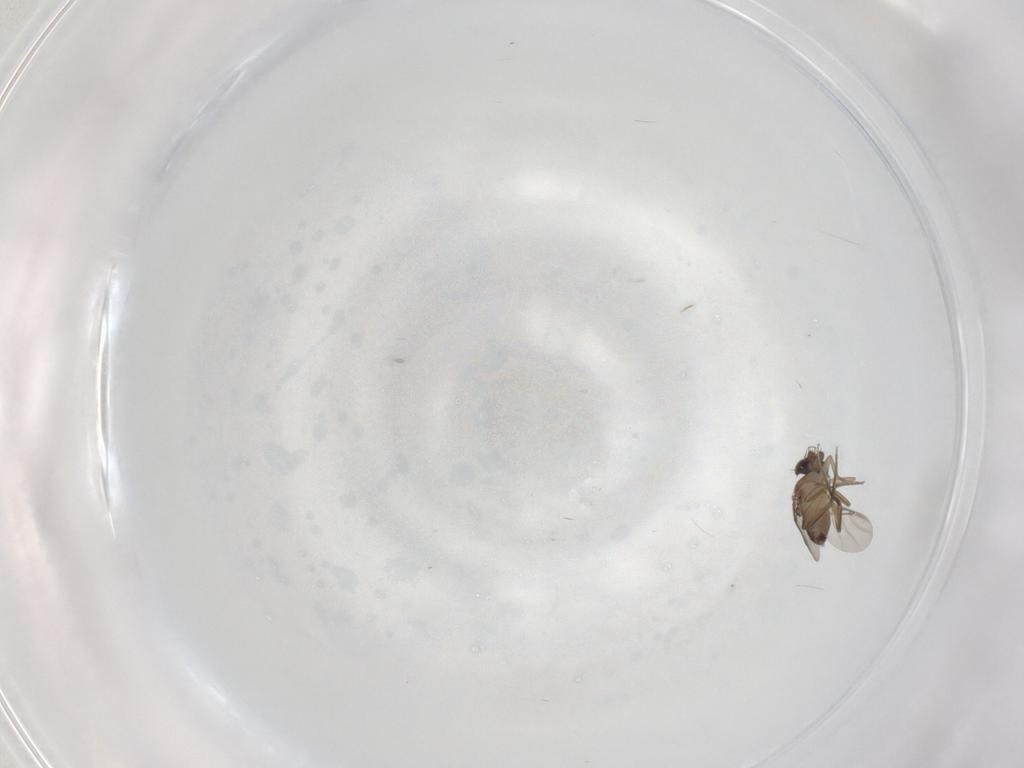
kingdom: Animalia
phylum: Arthropoda
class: Insecta
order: Diptera
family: Phoridae
